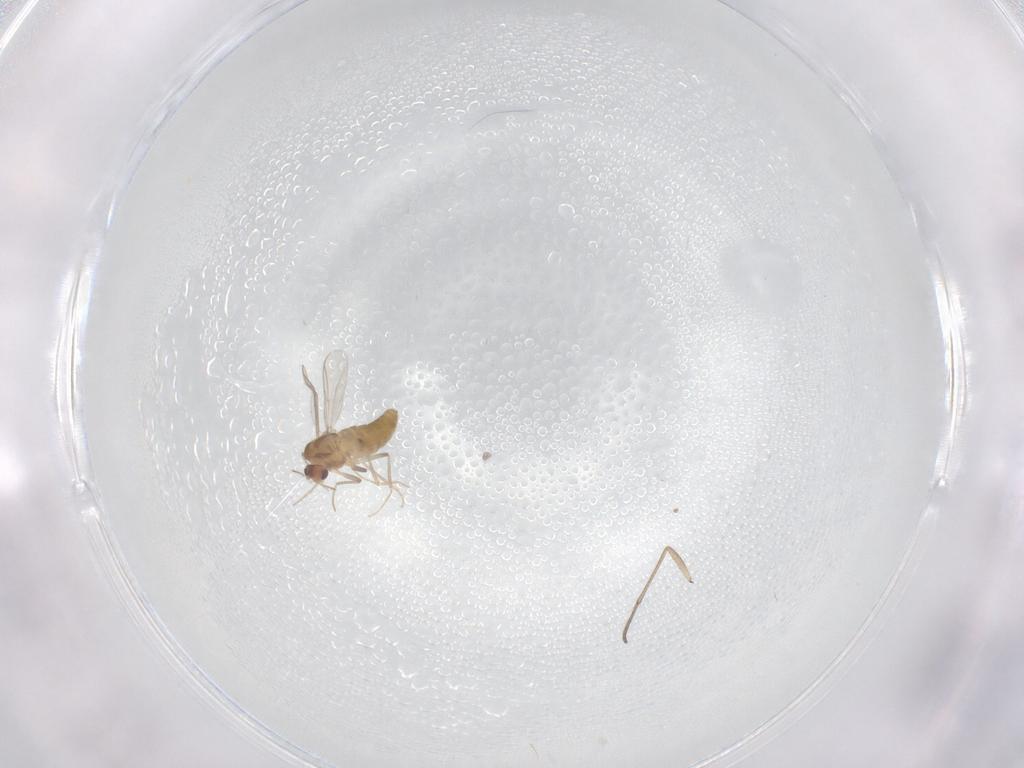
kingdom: Animalia
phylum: Arthropoda
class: Insecta
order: Diptera
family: Chironomidae
